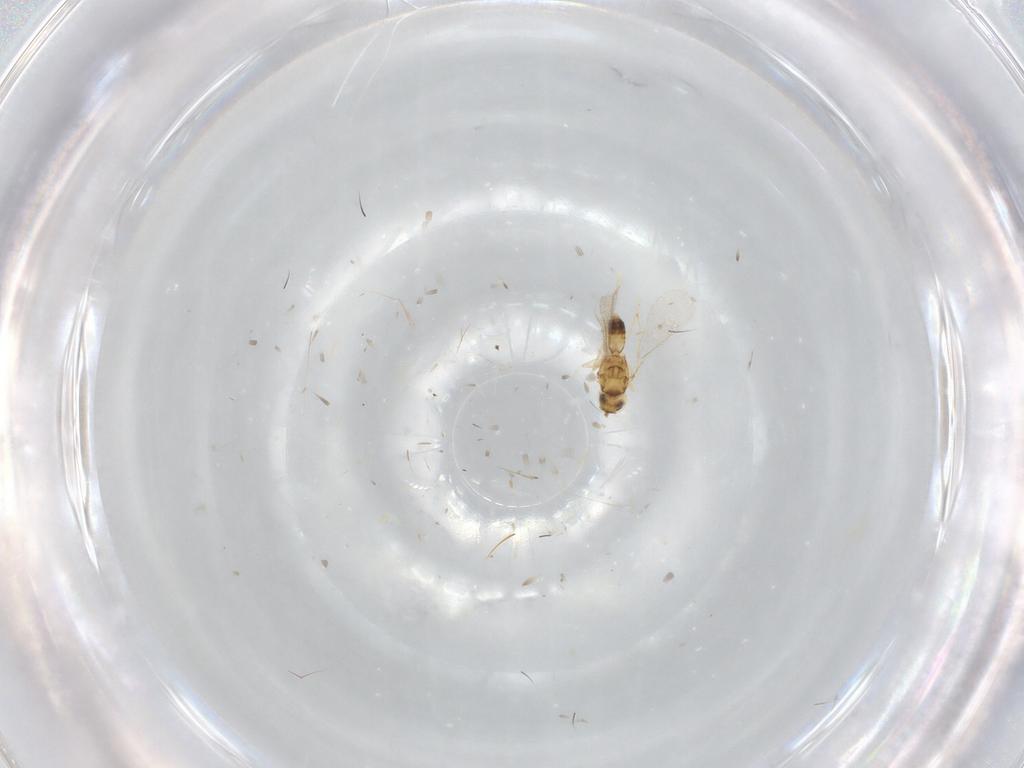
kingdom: Animalia
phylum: Arthropoda
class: Insecta
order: Hymenoptera
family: Eulophidae
